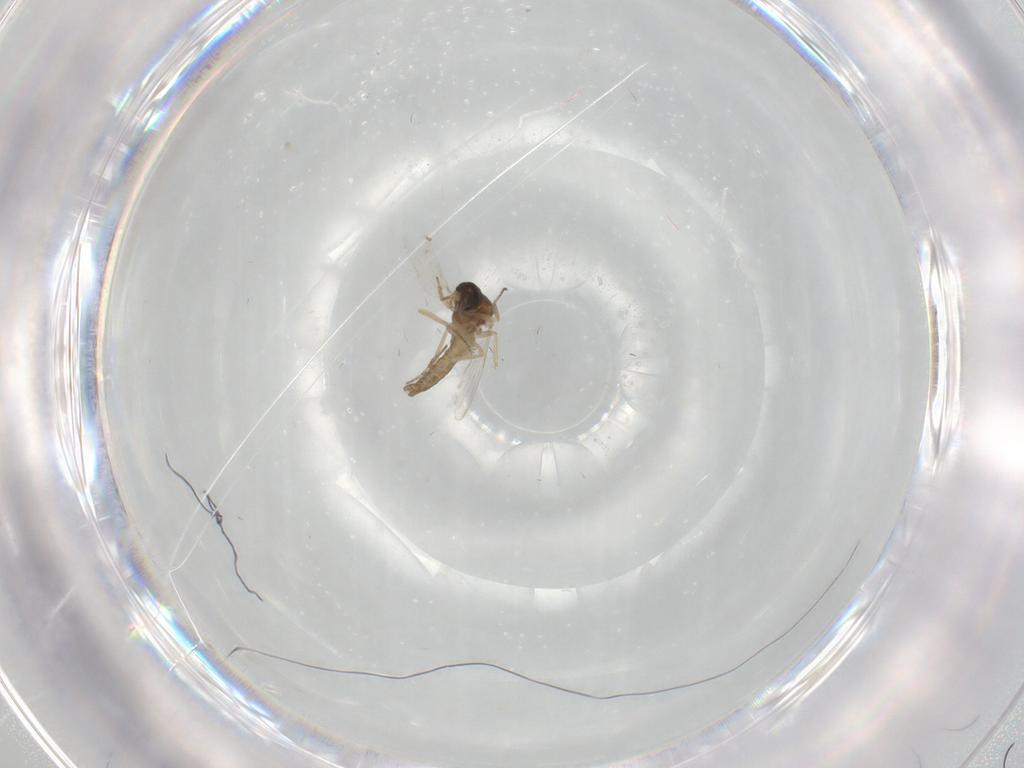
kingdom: Animalia
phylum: Arthropoda
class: Insecta
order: Diptera
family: Ceratopogonidae
